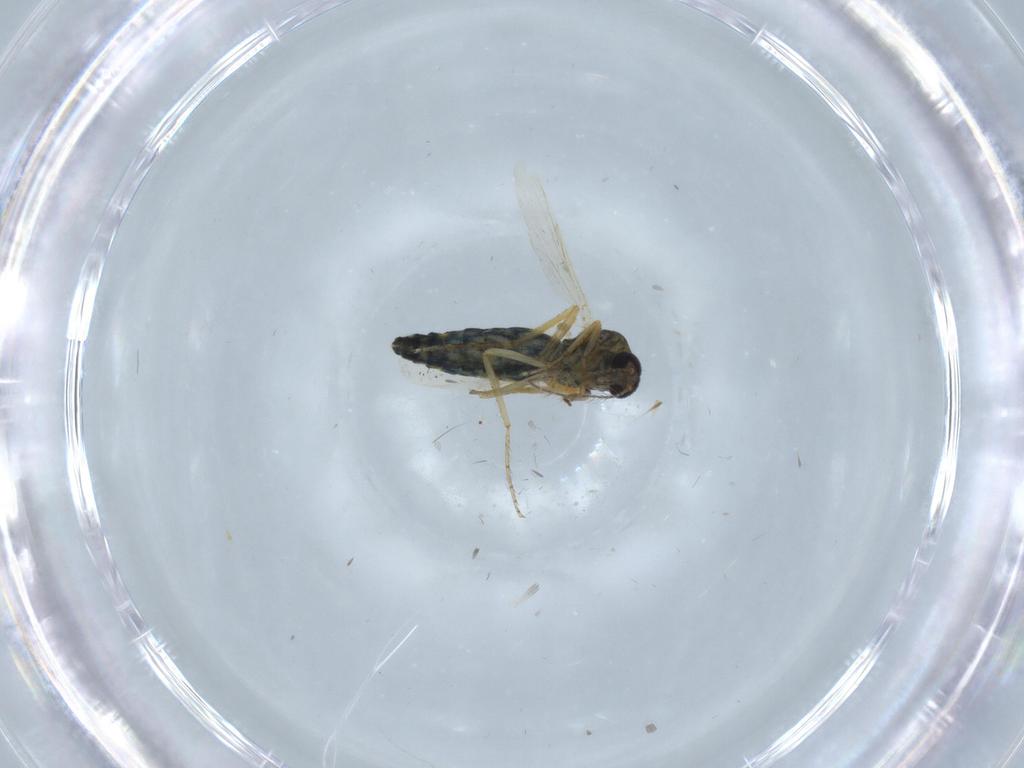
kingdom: Animalia
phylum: Arthropoda
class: Insecta
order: Diptera
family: Phoridae
